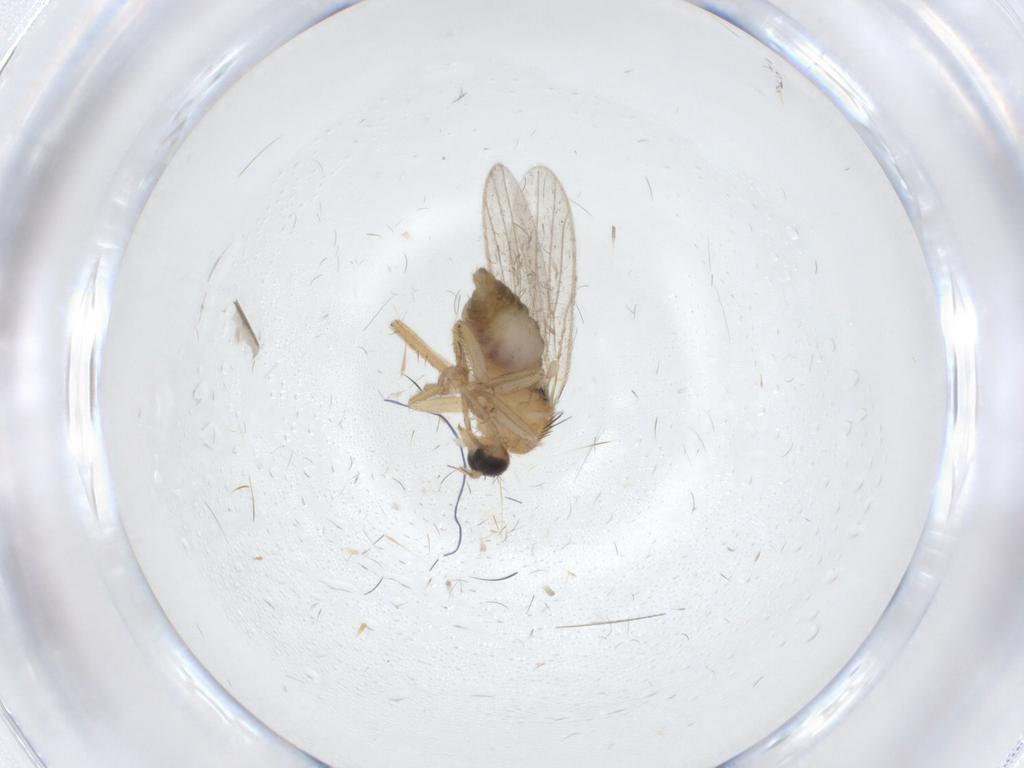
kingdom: Animalia
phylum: Arthropoda
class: Insecta
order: Diptera
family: Hybotidae
